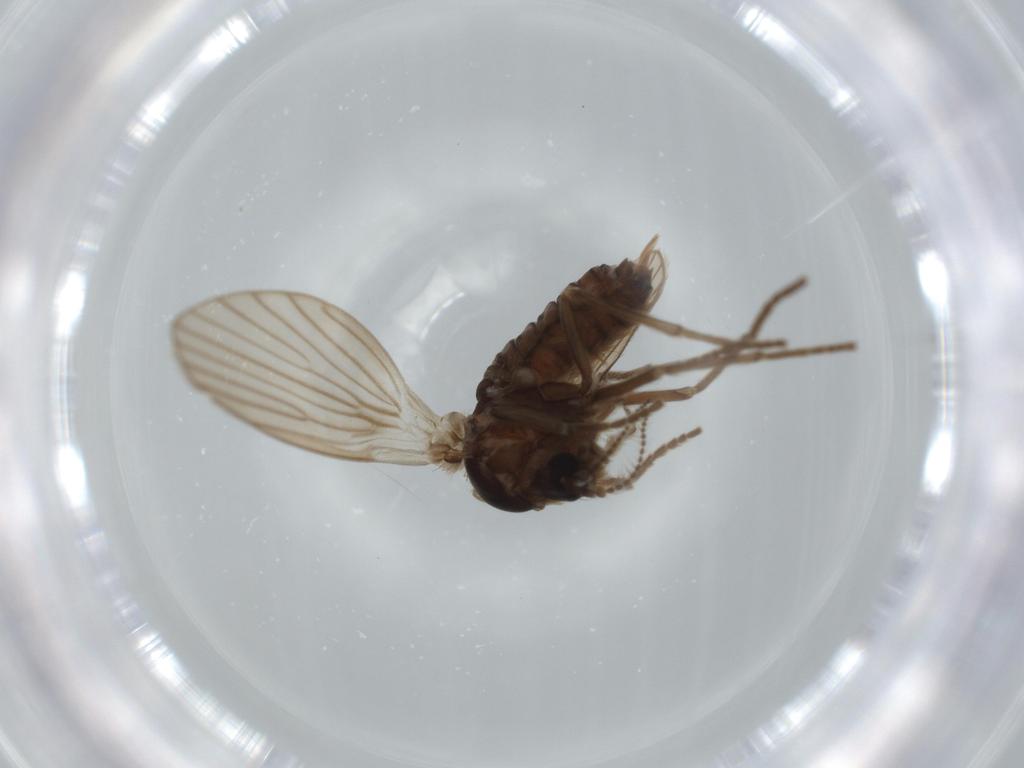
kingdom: Animalia
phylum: Arthropoda
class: Insecta
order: Diptera
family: Psychodidae
